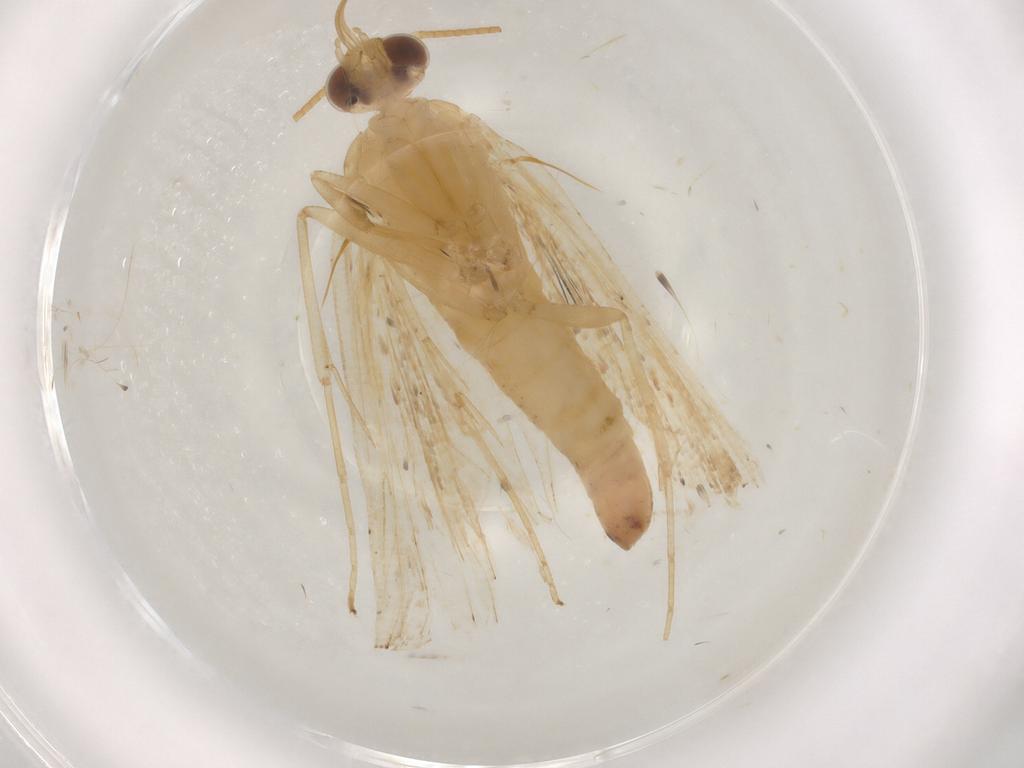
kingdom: Animalia
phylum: Arthropoda
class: Insecta
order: Lepidoptera
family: Crambidae
